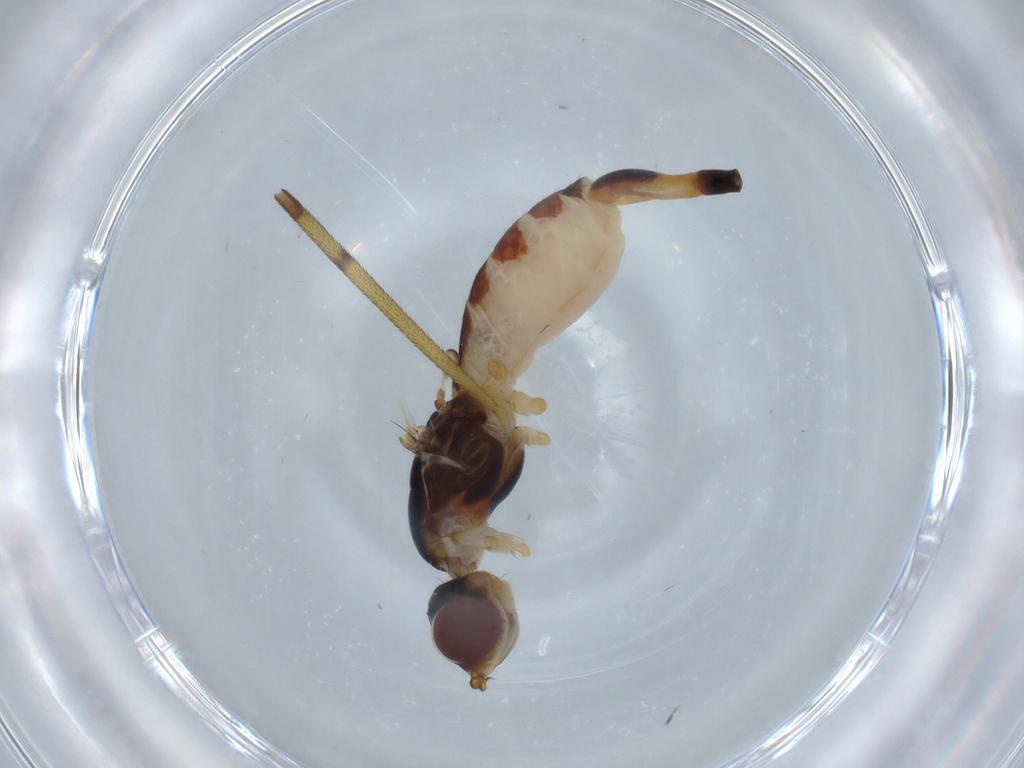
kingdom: Animalia
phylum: Arthropoda
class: Insecta
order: Diptera
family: Micropezidae
